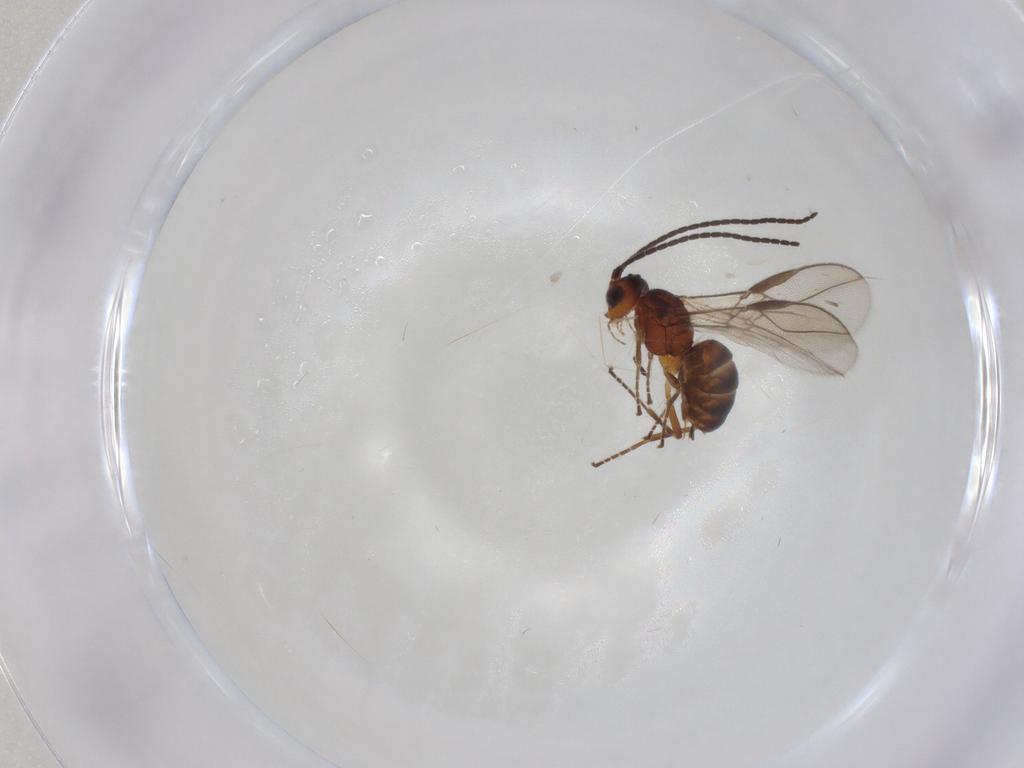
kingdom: Animalia
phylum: Arthropoda
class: Insecta
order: Hymenoptera
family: Braconidae
